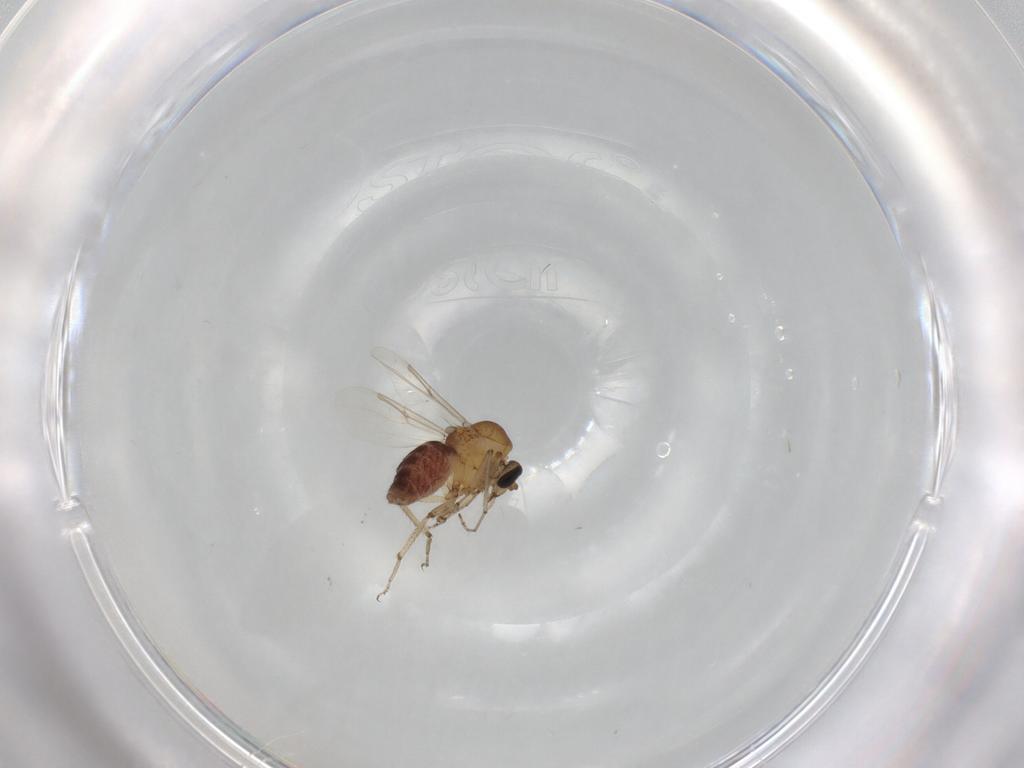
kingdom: Animalia
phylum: Arthropoda
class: Insecta
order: Diptera
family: Ceratopogonidae
